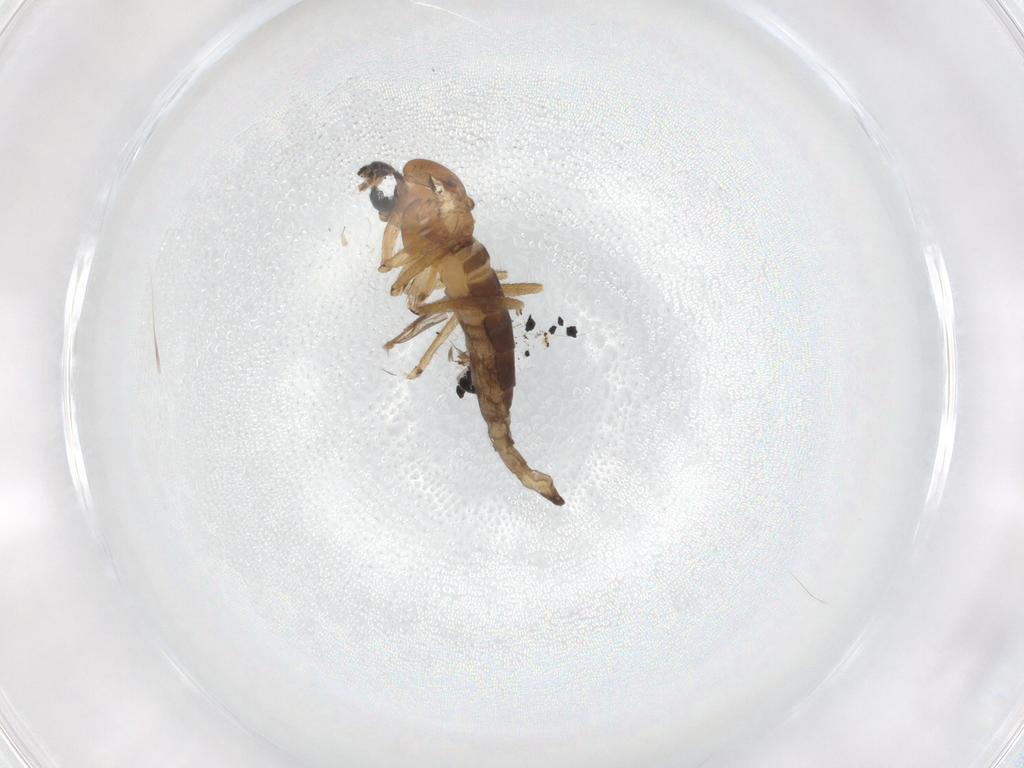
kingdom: Animalia
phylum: Arthropoda
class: Insecta
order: Diptera
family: Sciaridae
